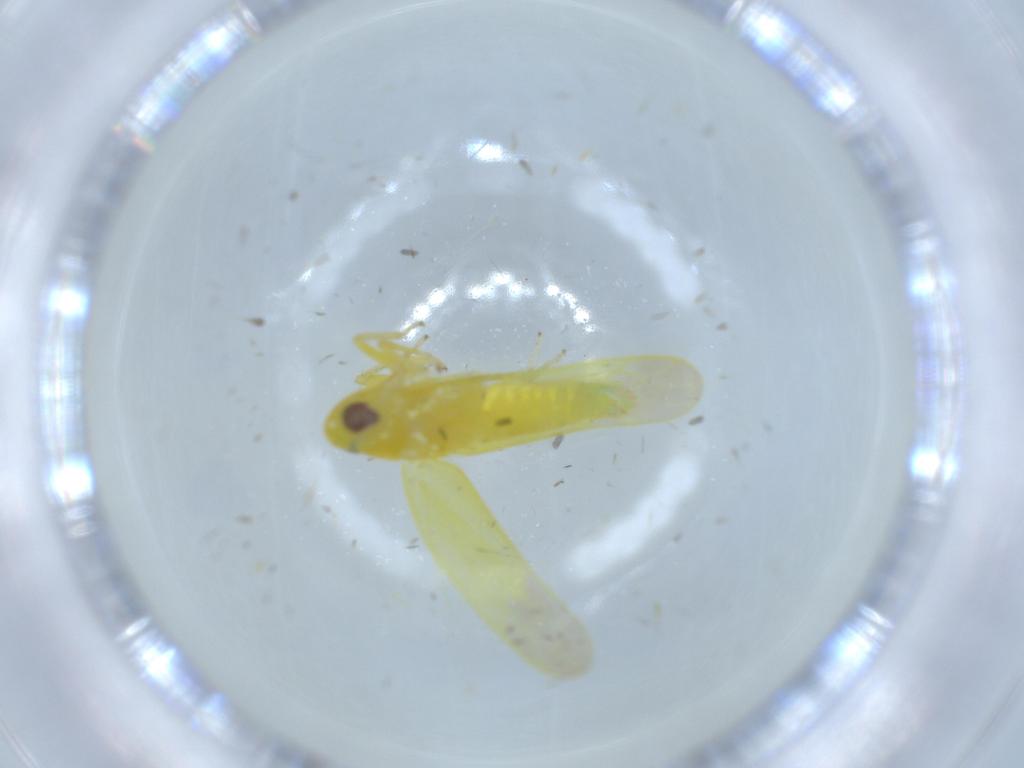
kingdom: Animalia
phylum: Arthropoda
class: Insecta
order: Hemiptera
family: Cicadellidae
